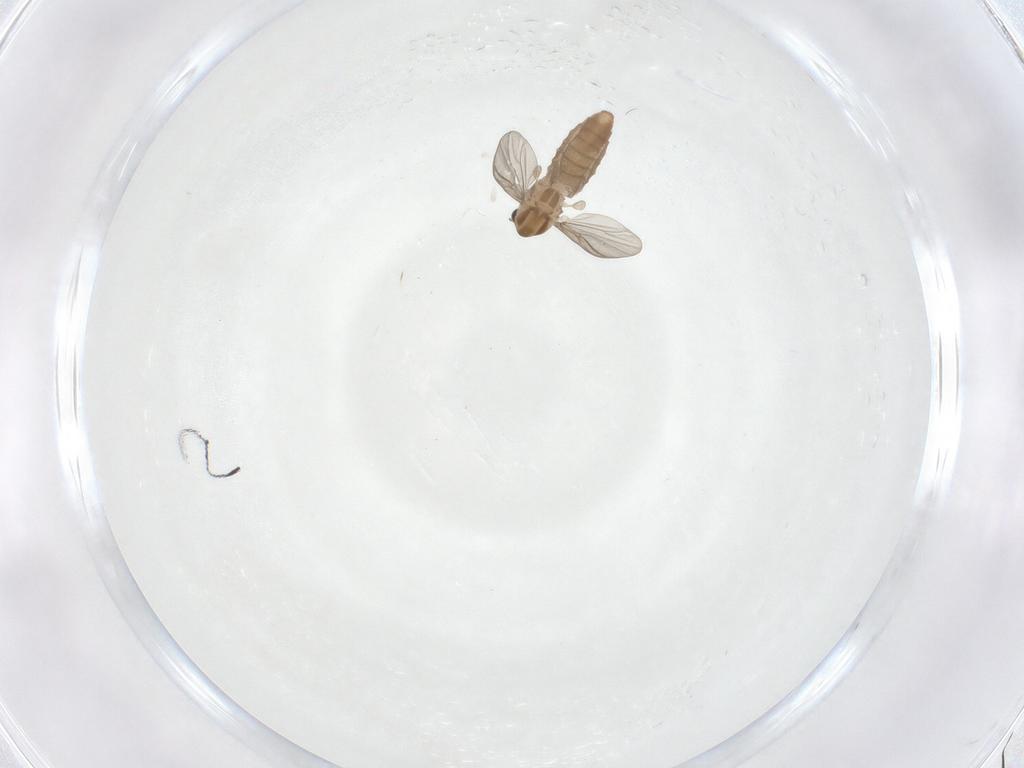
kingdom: Animalia
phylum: Arthropoda
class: Insecta
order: Diptera
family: Chironomidae
